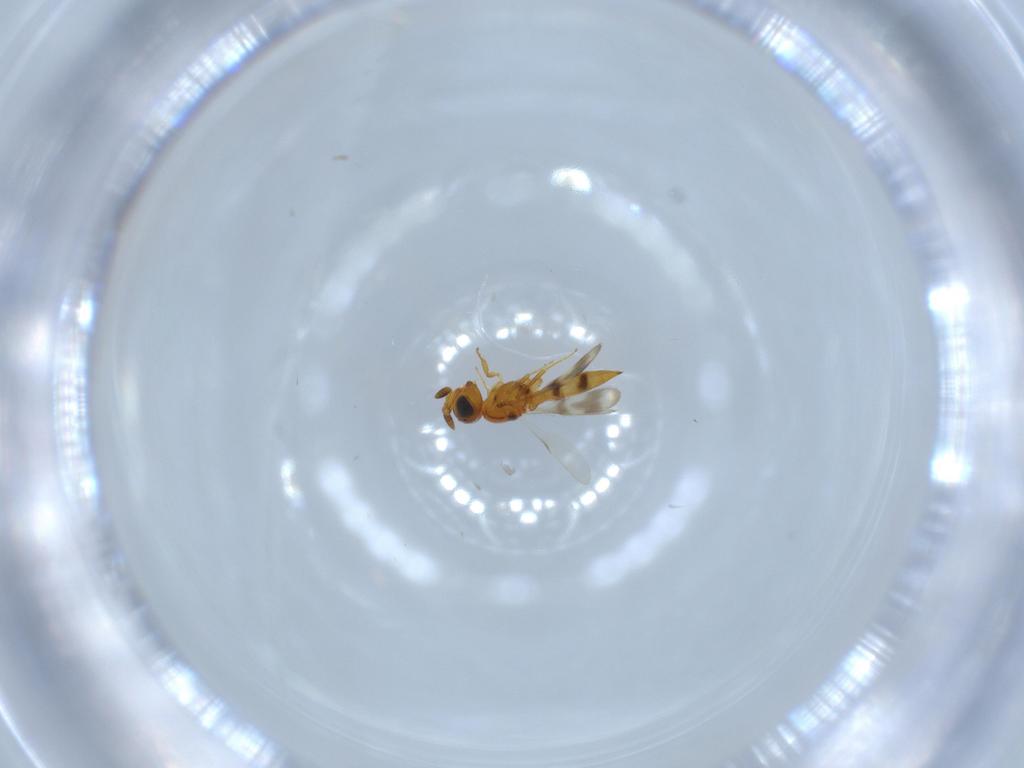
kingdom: Animalia
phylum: Arthropoda
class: Insecta
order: Hymenoptera
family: Scelionidae
